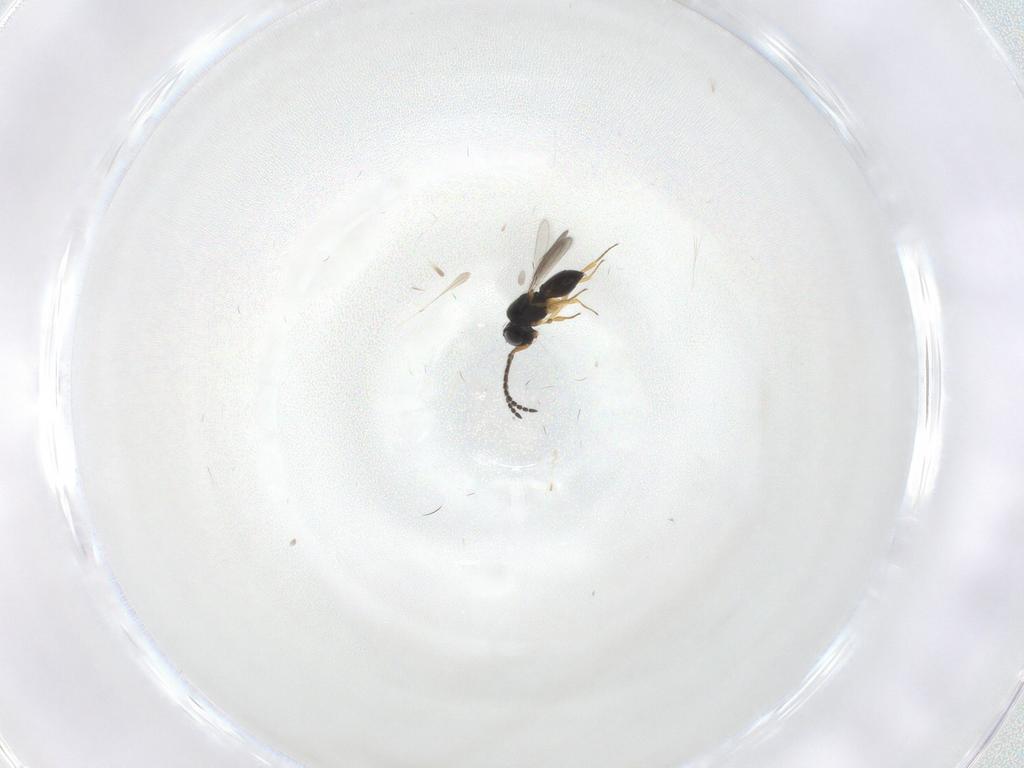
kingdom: Animalia
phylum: Arthropoda
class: Insecta
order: Hymenoptera
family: Scelionidae
